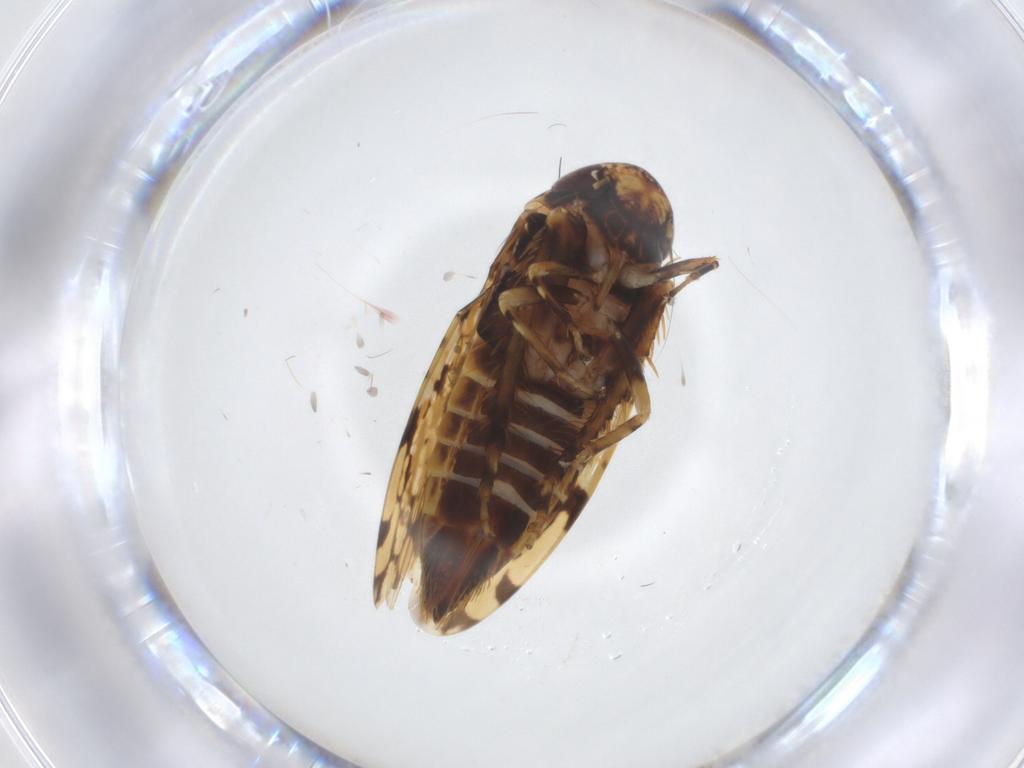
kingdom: Animalia
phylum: Arthropoda
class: Insecta
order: Hemiptera
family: Cicadellidae
